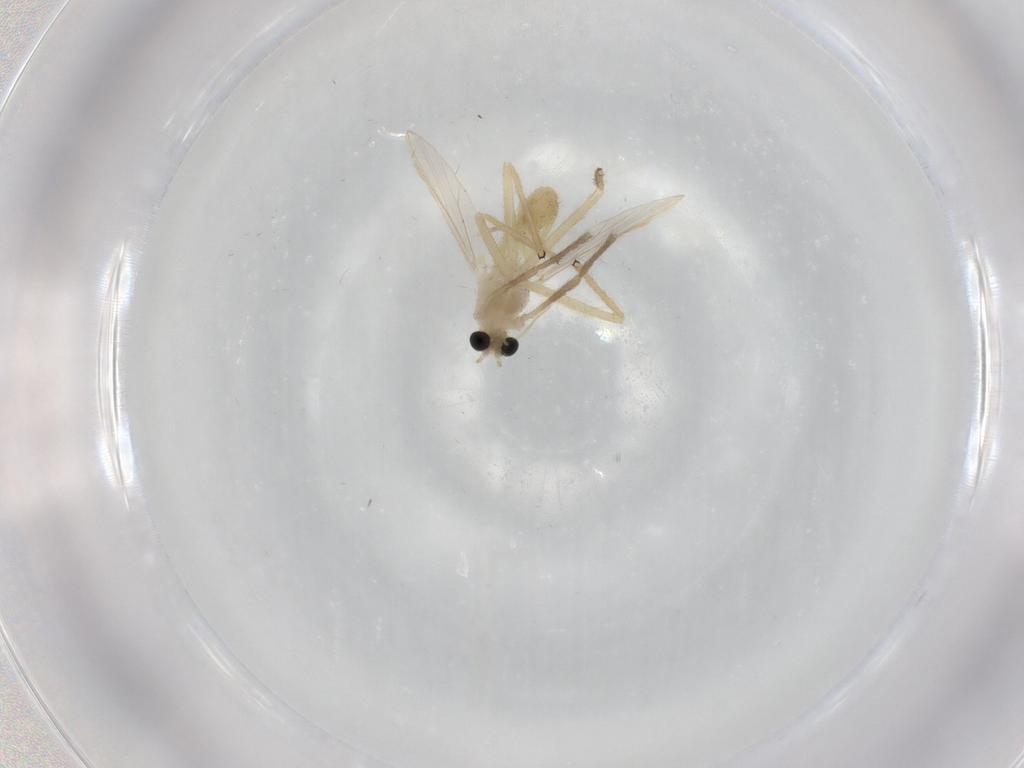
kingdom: Animalia
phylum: Arthropoda
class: Insecta
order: Diptera
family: Chironomidae
